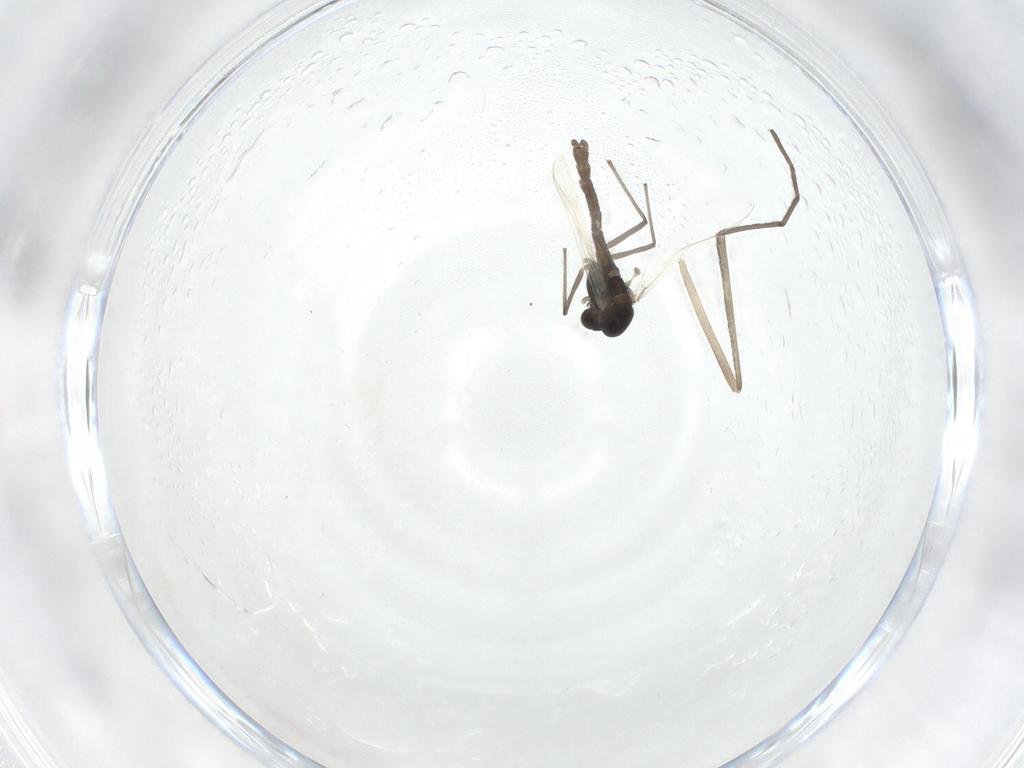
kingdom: Animalia
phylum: Arthropoda
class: Insecta
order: Diptera
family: Chironomidae
